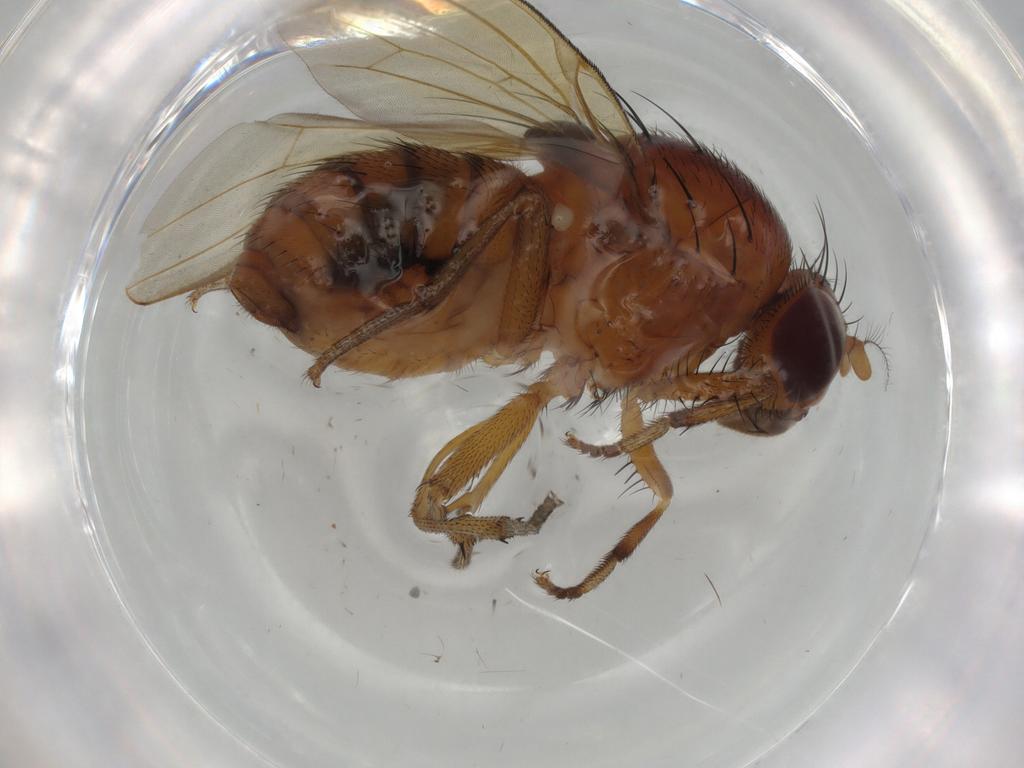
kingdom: Animalia
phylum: Arthropoda
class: Insecta
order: Diptera
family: Cecidomyiidae
